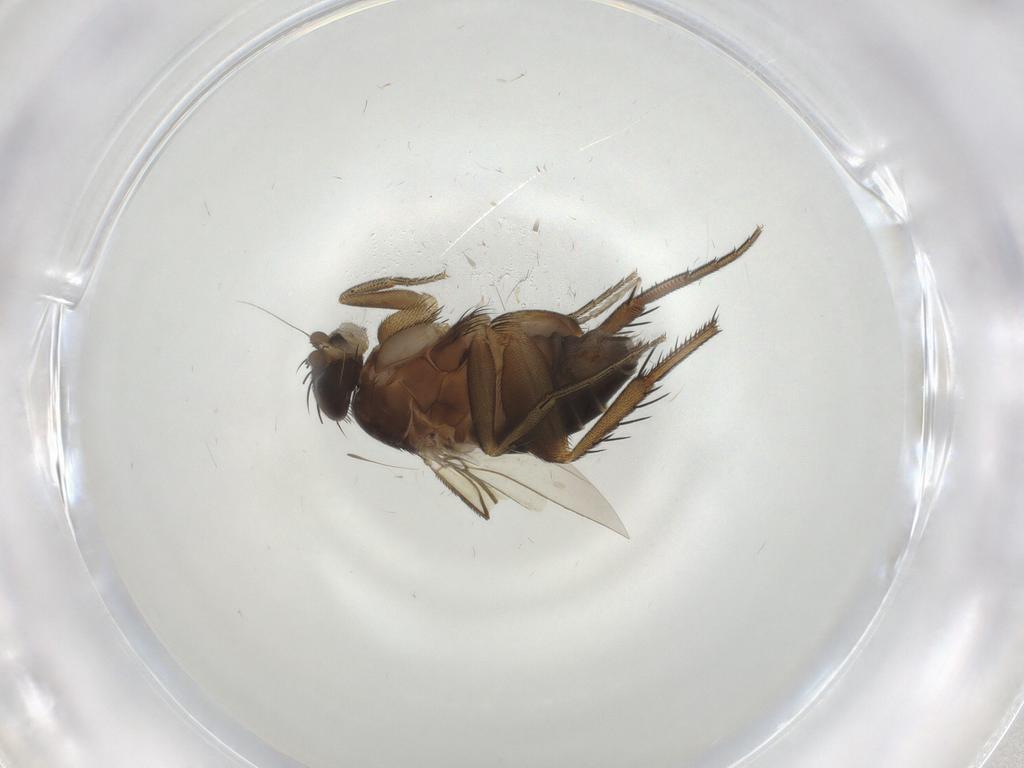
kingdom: Animalia
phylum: Arthropoda
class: Insecta
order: Diptera
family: Phoridae
